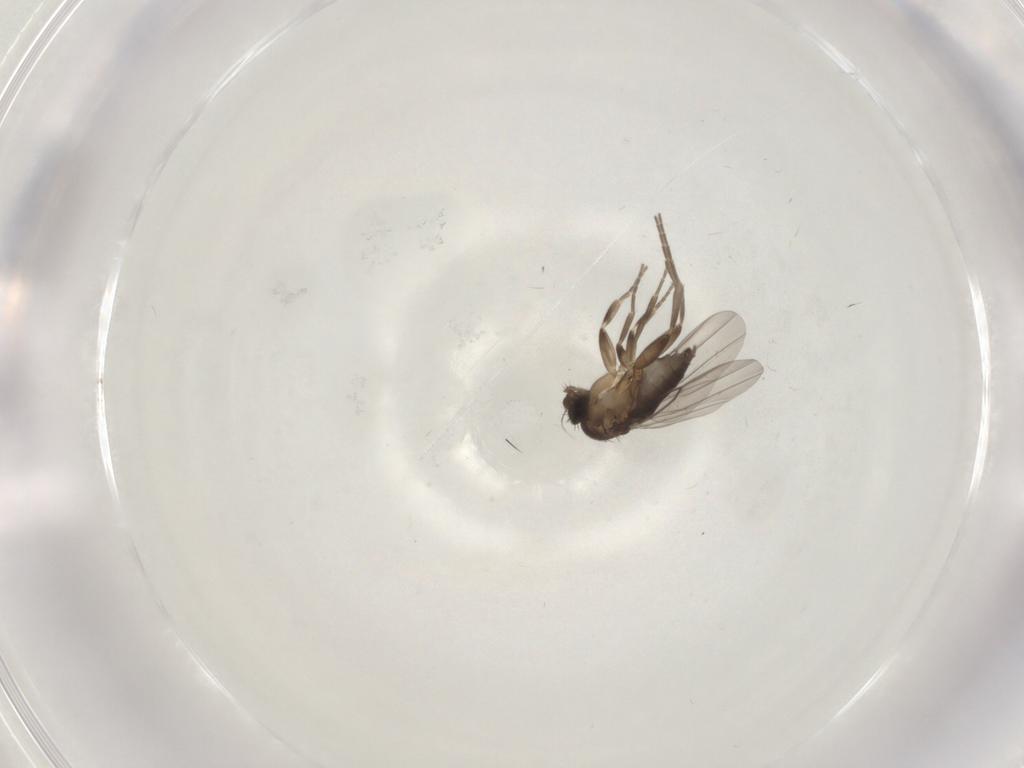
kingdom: Animalia
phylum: Arthropoda
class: Insecta
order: Diptera
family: Phoridae
